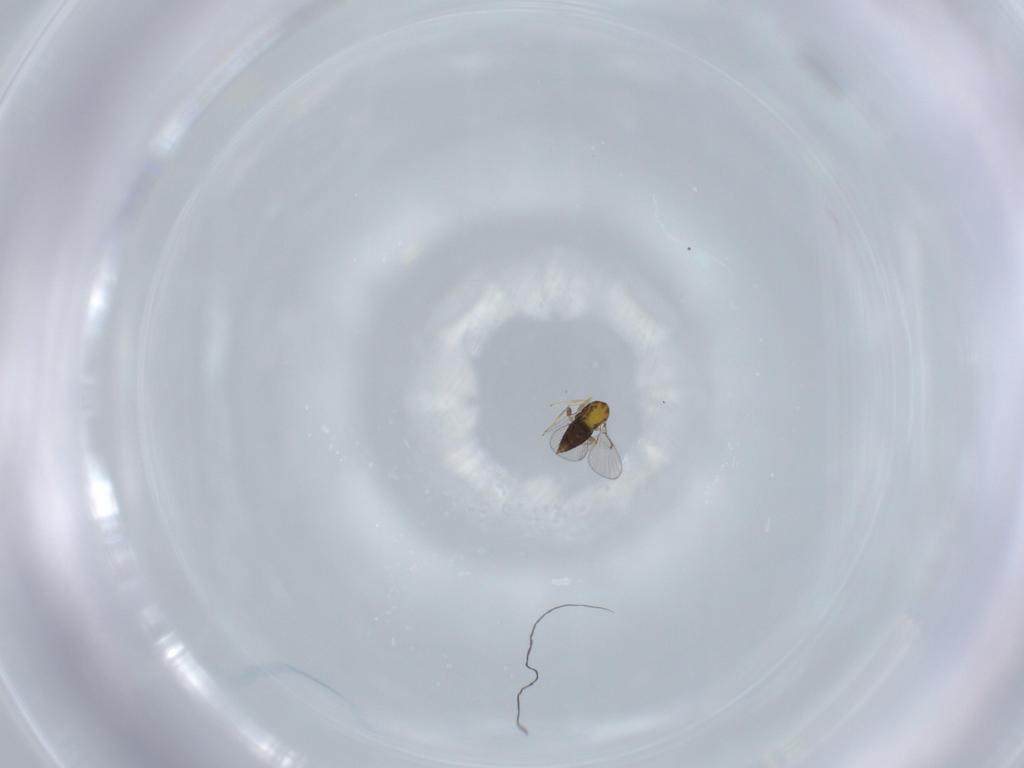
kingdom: Animalia
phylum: Arthropoda
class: Insecta
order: Hymenoptera
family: Trichogrammatidae
